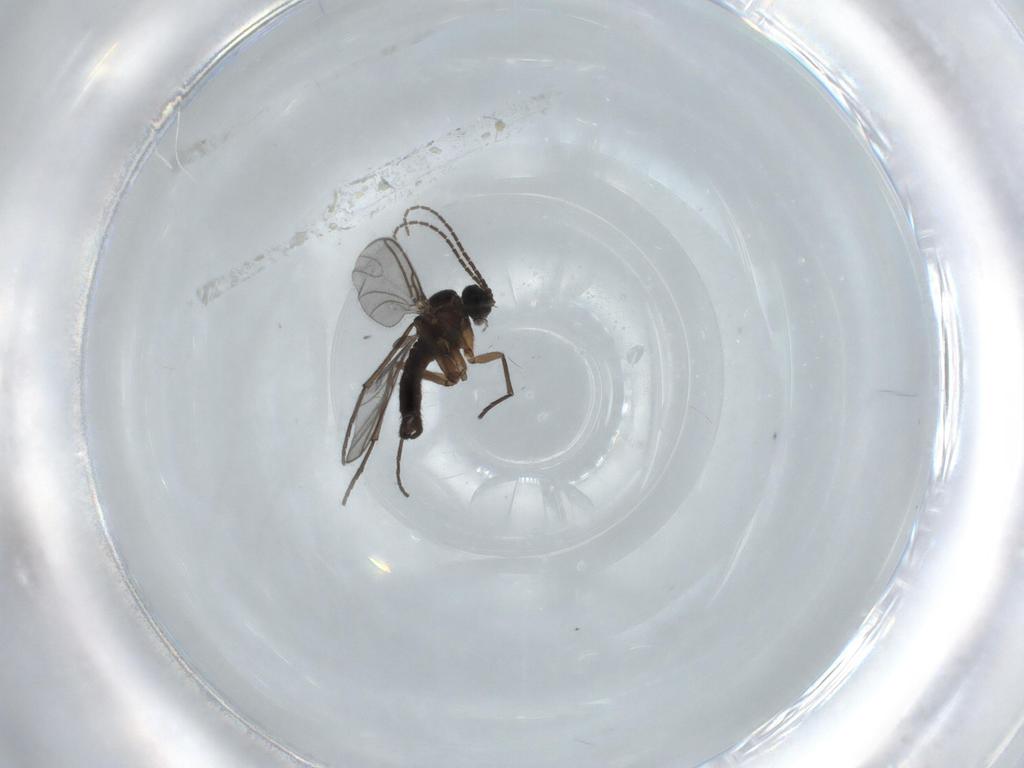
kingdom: Animalia
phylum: Arthropoda
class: Insecta
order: Diptera
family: Sciaridae
